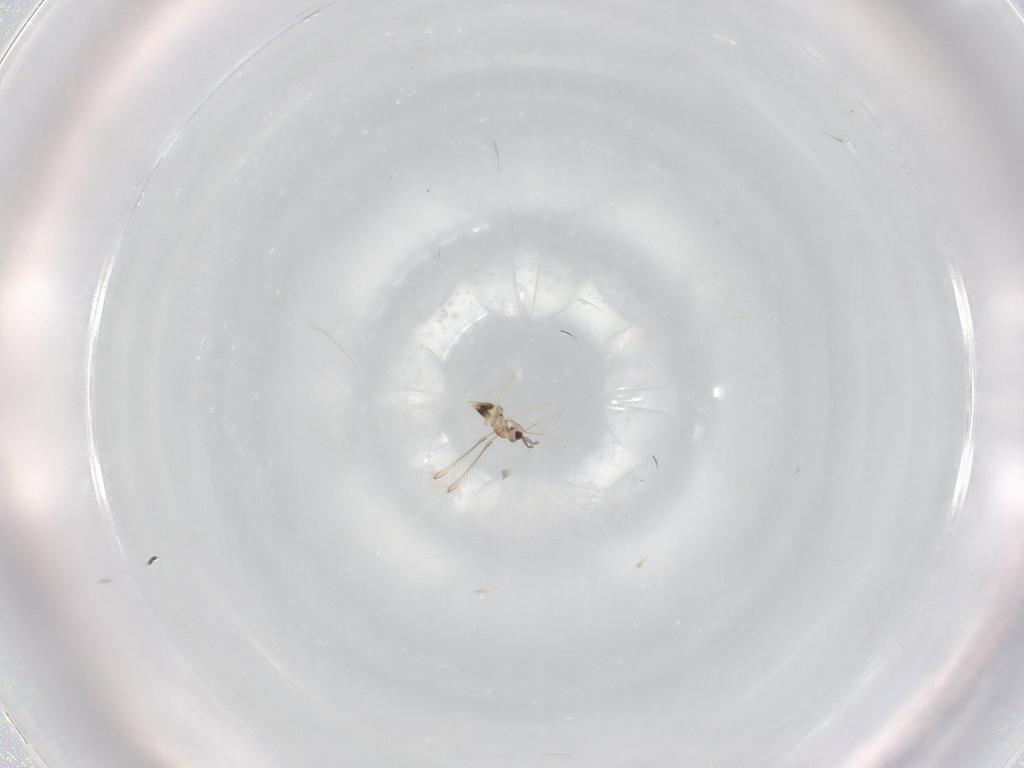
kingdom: Animalia
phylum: Arthropoda
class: Insecta
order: Hymenoptera
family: Mymaridae
